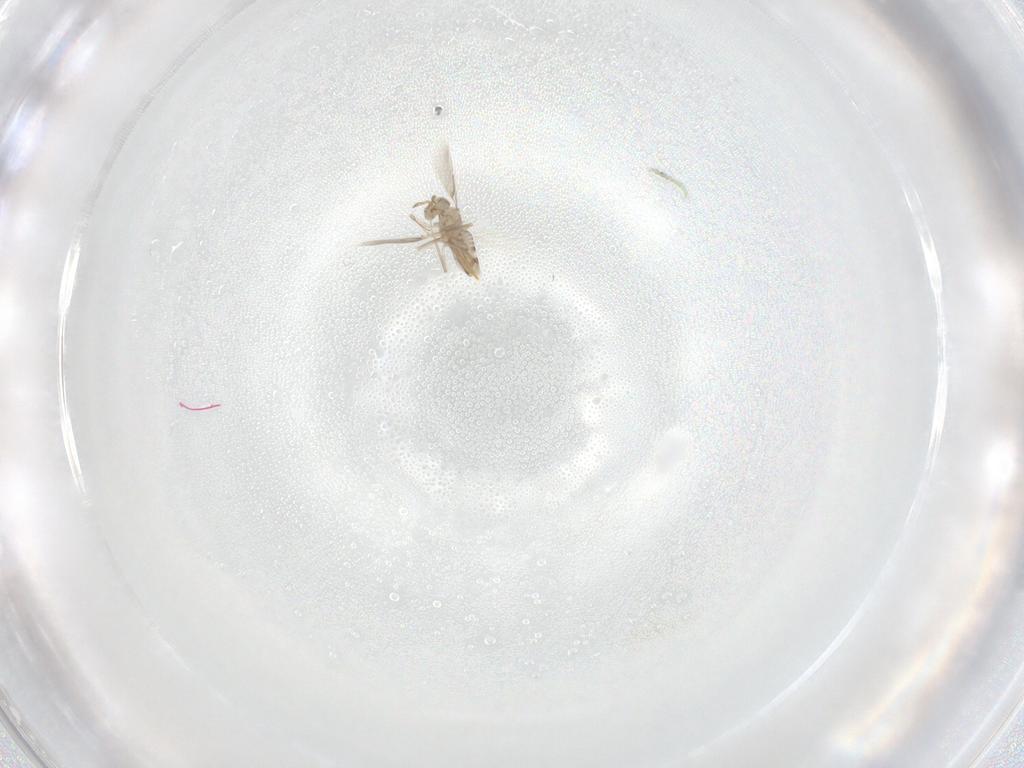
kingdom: Animalia
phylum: Arthropoda
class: Insecta
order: Hymenoptera
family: Aphelinidae
